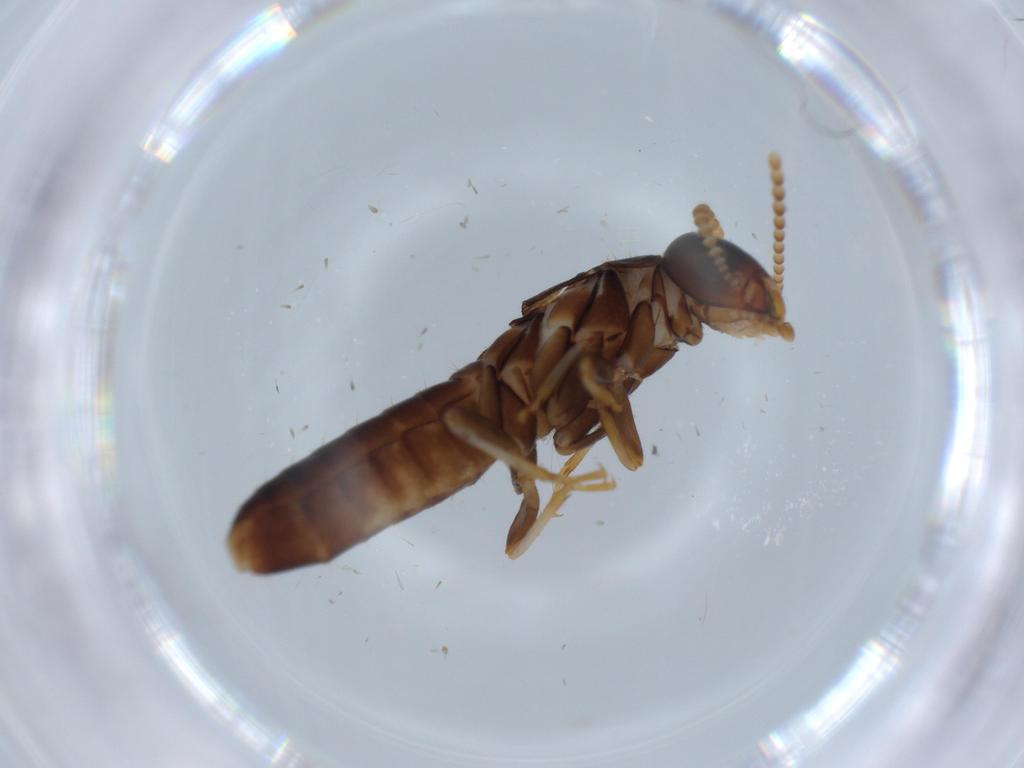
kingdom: Animalia
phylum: Arthropoda
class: Insecta
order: Blattodea
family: Kalotermitidae
